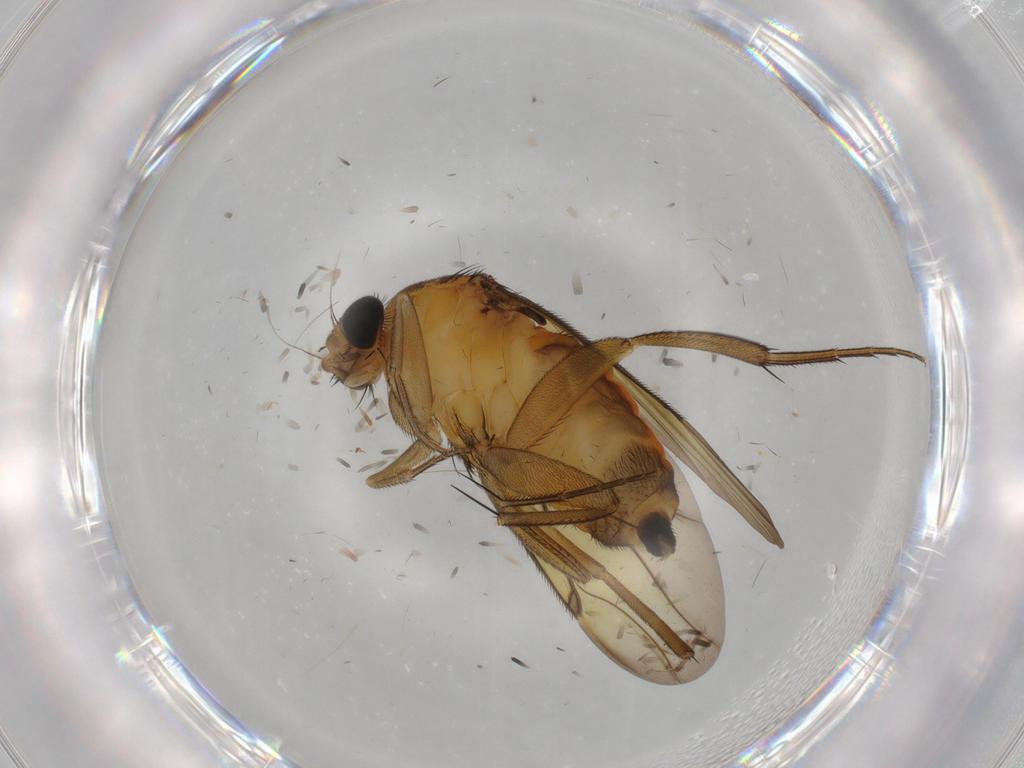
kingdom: Animalia
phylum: Arthropoda
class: Insecta
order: Diptera
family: Phoridae
